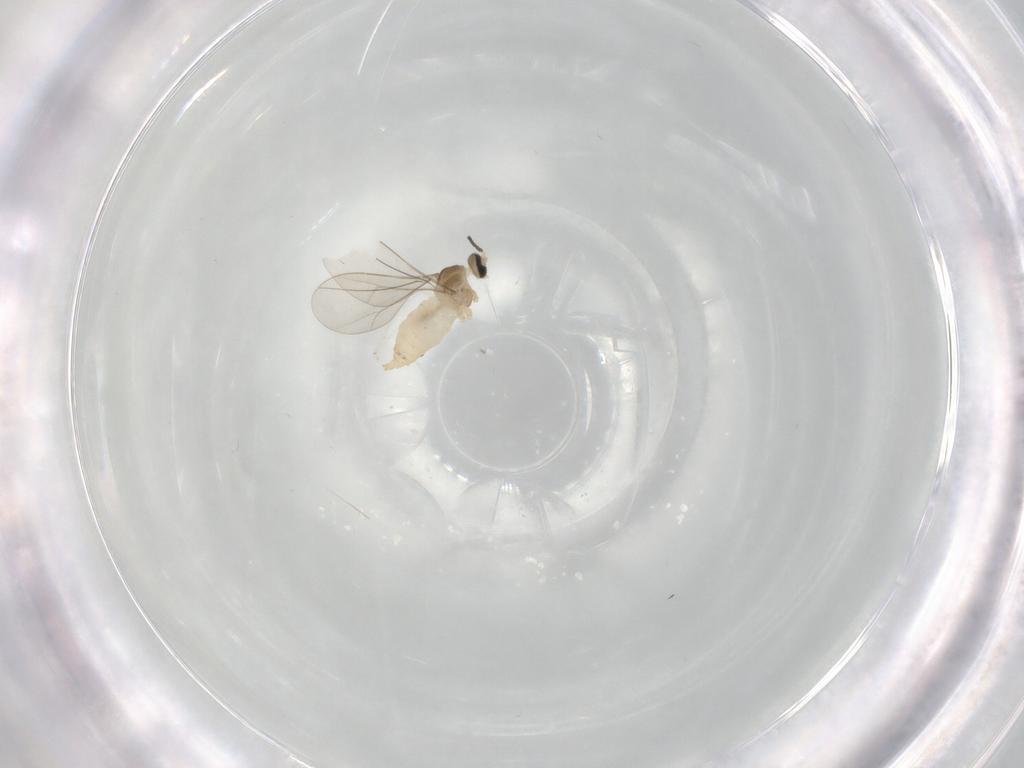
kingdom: Animalia
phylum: Arthropoda
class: Insecta
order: Diptera
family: Cecidomyiidae
